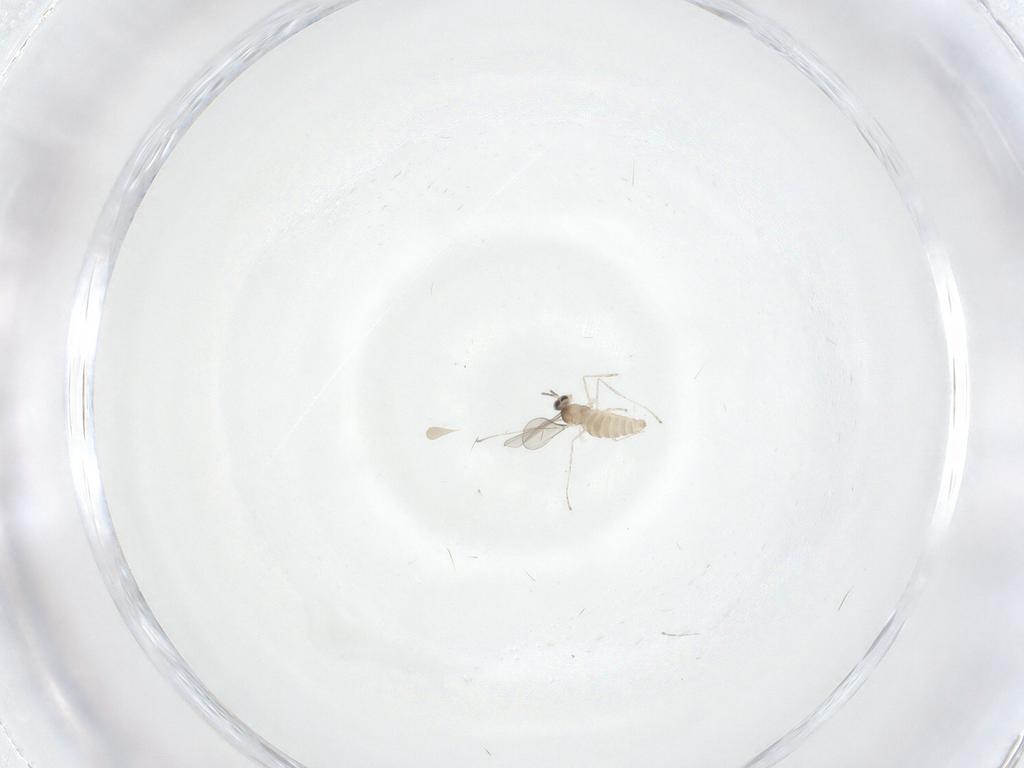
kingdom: Animalia
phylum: Arthropoda
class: Insecta
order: Diptera
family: Cecidomyiidae
